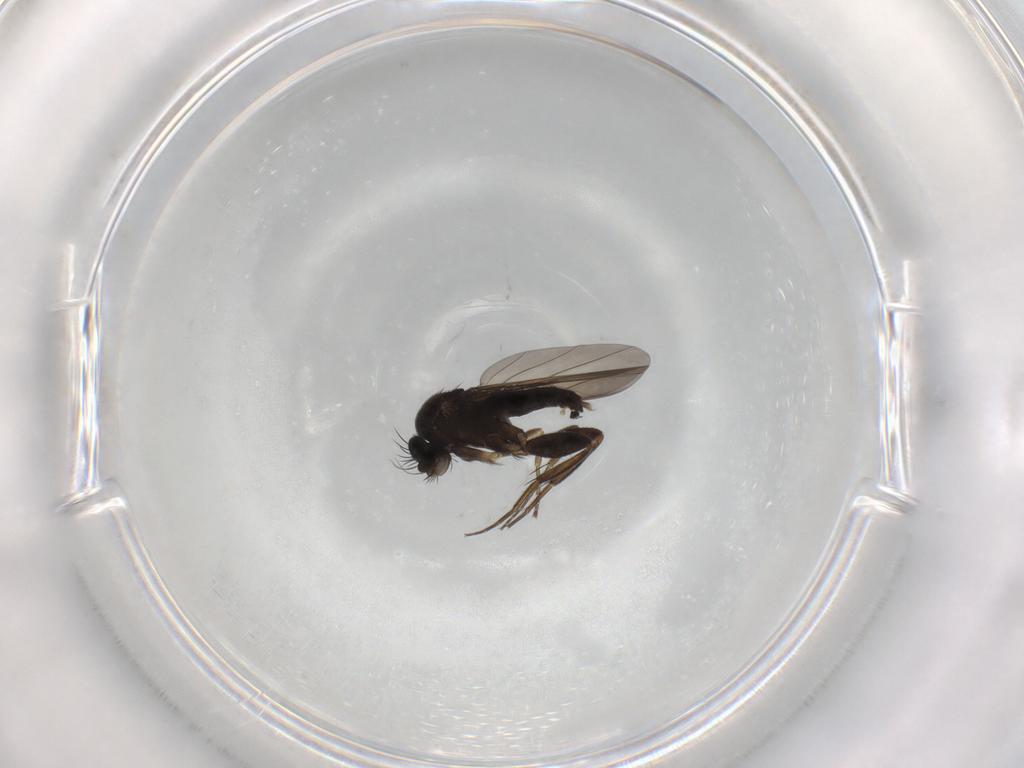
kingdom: Animalia
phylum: Arthropoda
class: Insecta
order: Diptera
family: Mycetophilidae
